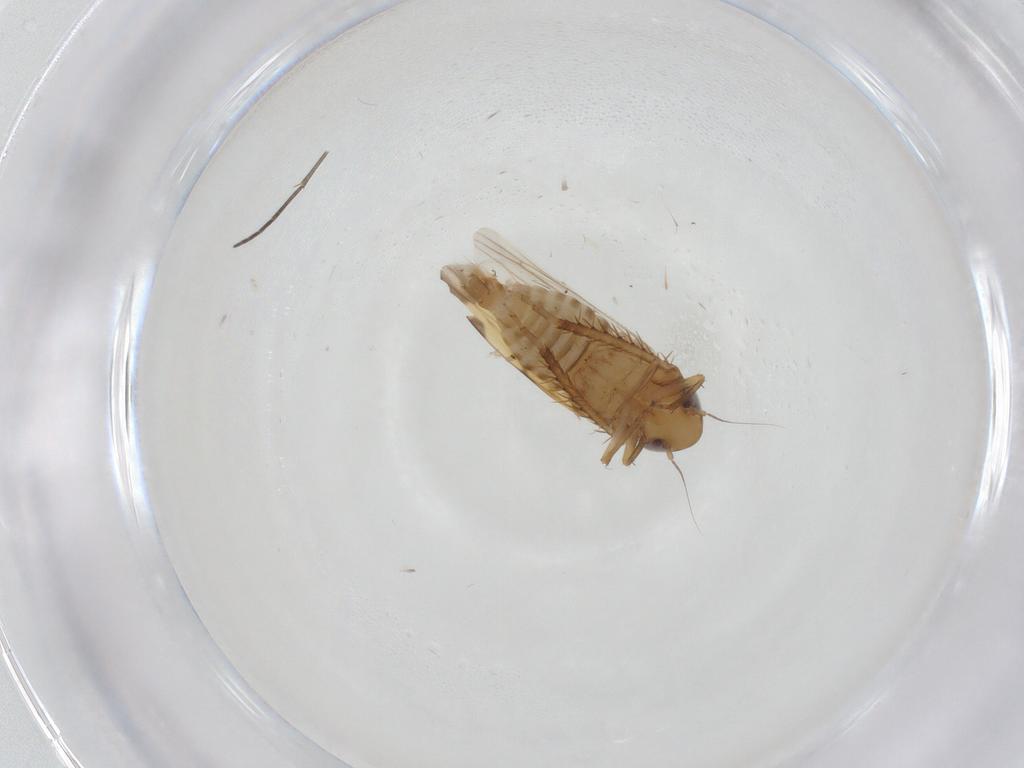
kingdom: Animalia
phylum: Arthropoda
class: Insecta
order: Hemiptera
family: Cicadellidae
